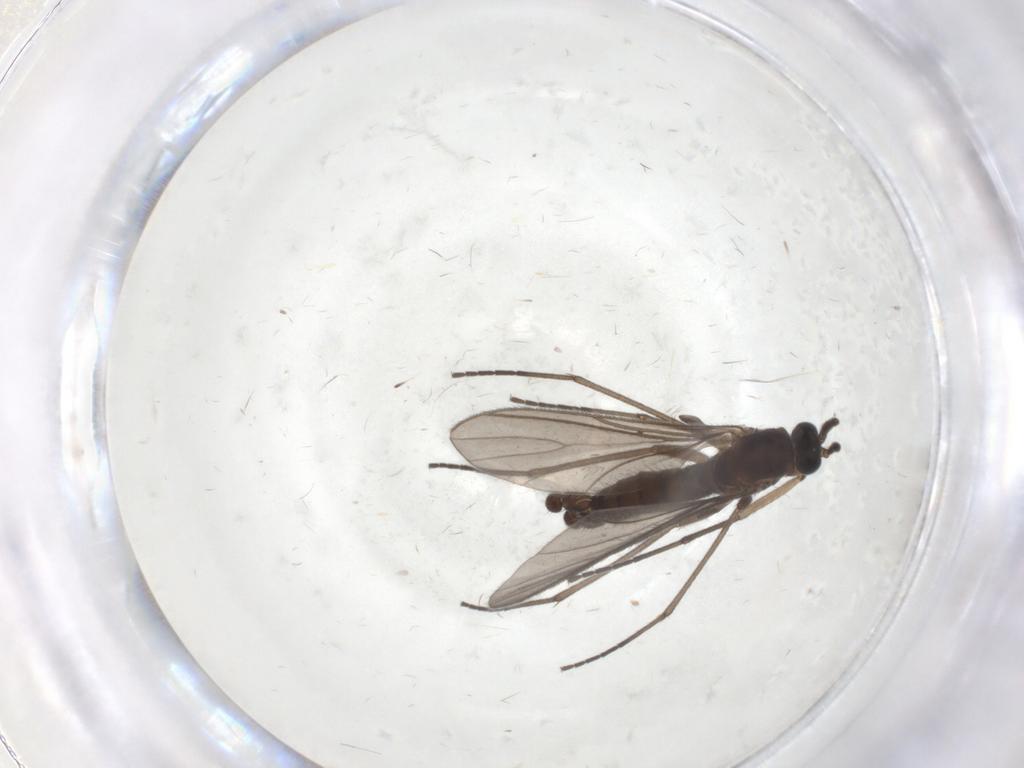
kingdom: Animalia
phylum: Arthropoda
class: Insecta
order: Diptera
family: Sciaridae
